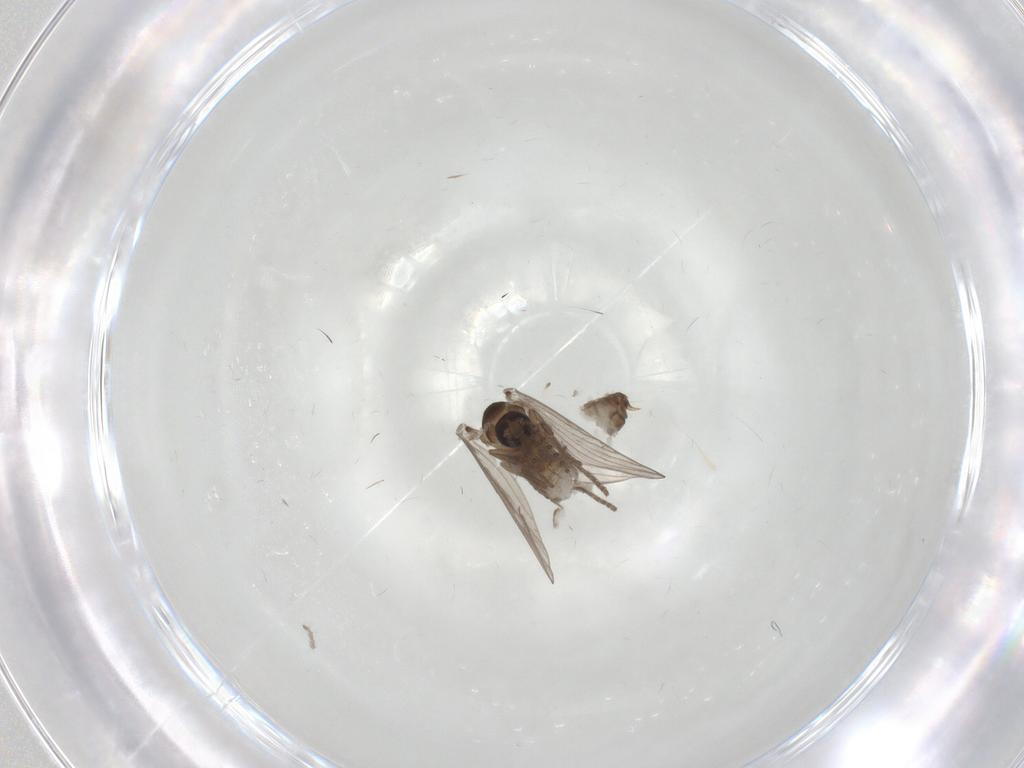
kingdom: Animalia
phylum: Arthropoda
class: Insecta
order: Diptera
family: Psychodidae
